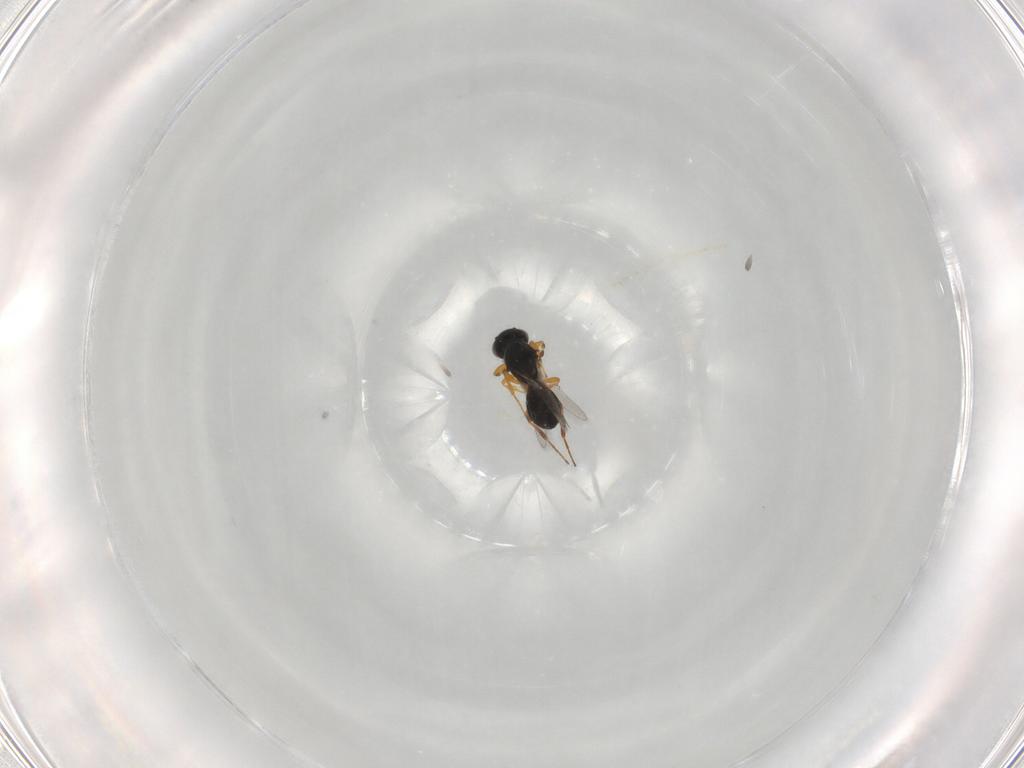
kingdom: Animalia
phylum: Arthropoda
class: Insecta
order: Hymenoptera
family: Platygastridae
